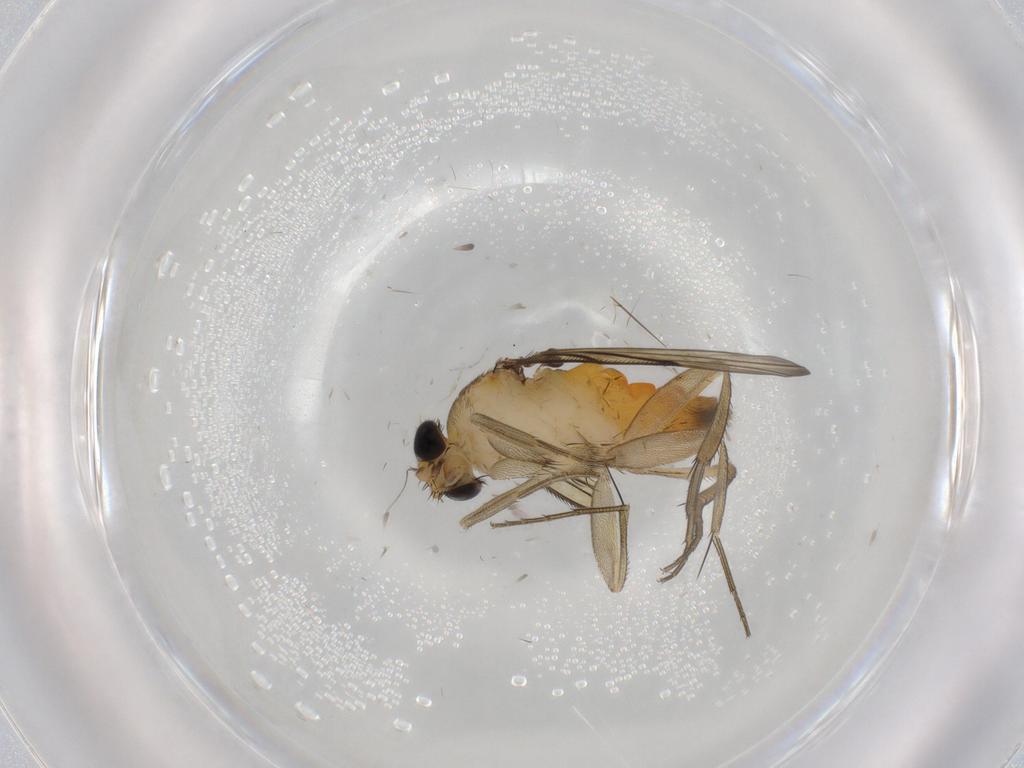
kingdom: Animalia
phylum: Arthropoda
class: Insecta
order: Diptera
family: Phoridae
